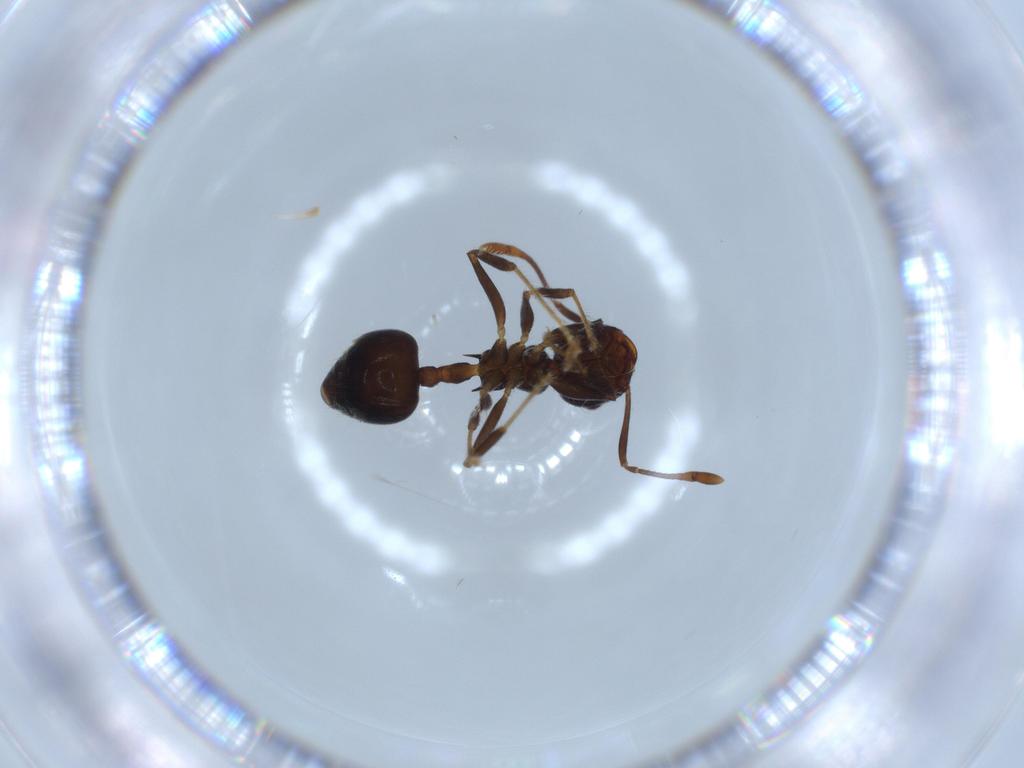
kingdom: Animalia
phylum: Arthropoda
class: Insecta
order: Hymenoptera
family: Formicidae
